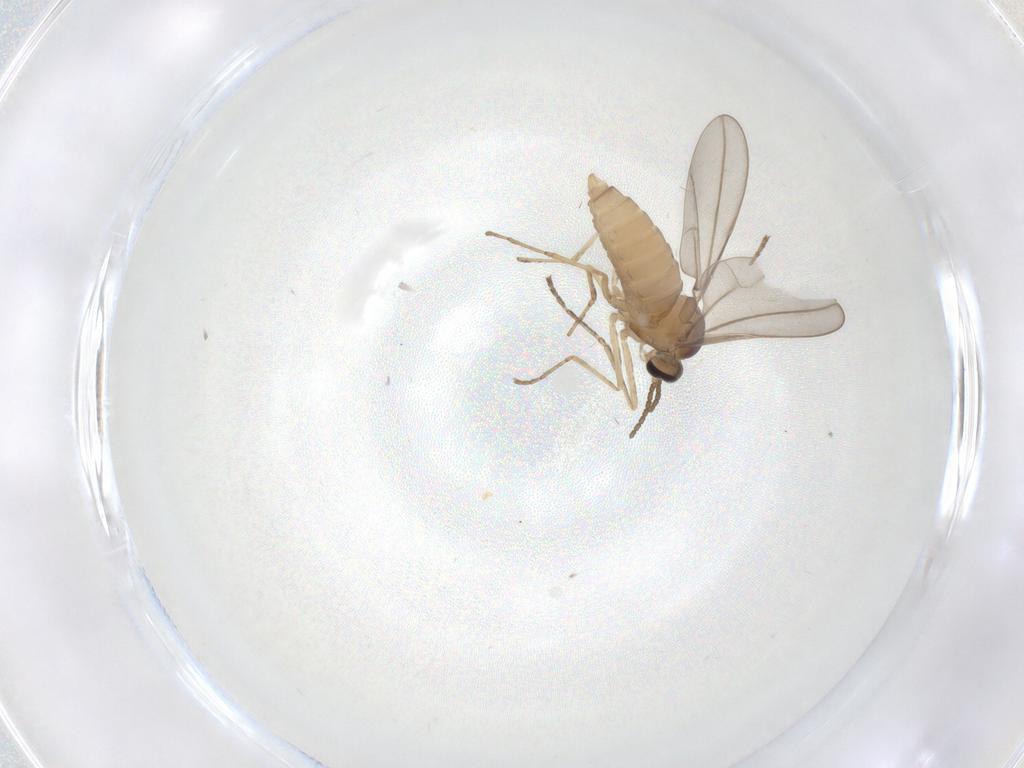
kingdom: Animalia
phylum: Arthropoda
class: Insecta
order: Diptera
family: Cecidomyiidae
